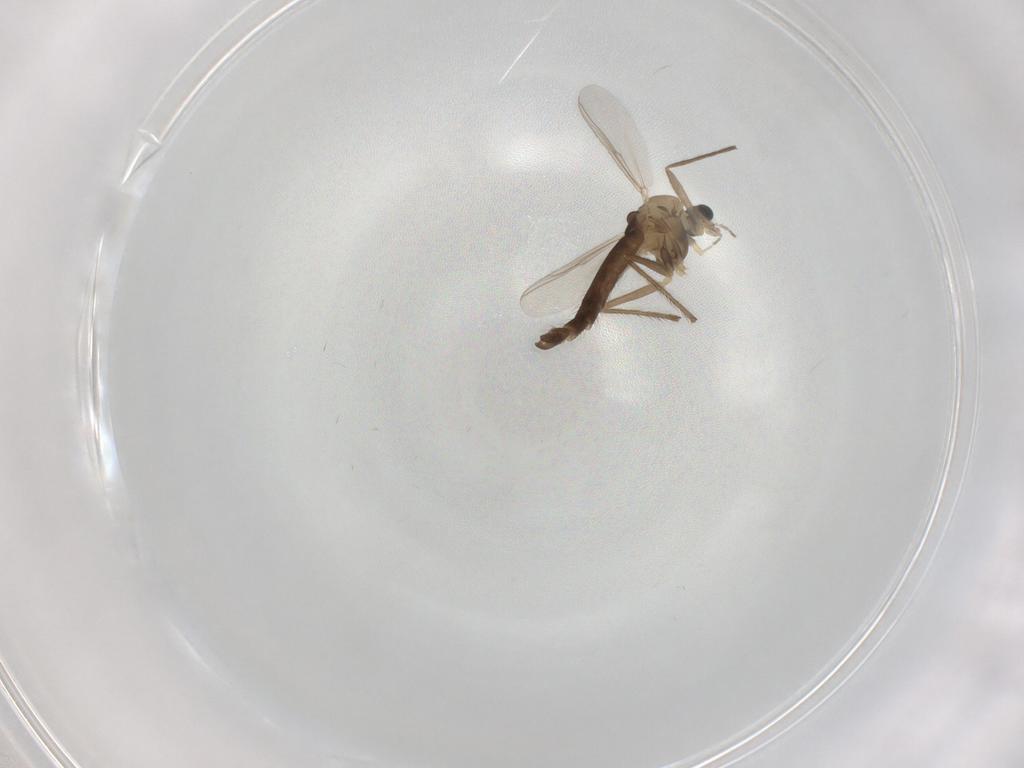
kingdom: Animalia
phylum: Arthropoda
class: Insecta
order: Diptera
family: Chironomidae
